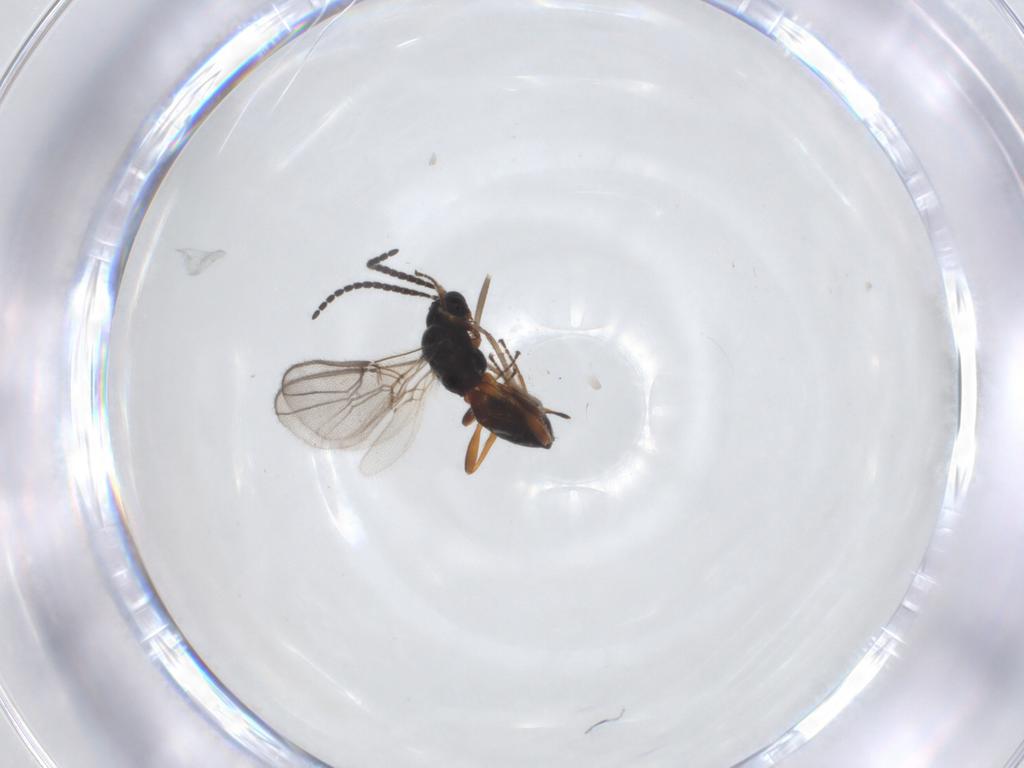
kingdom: Animalia
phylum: Arthropoda
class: Insecta
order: Hymenoptera
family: Braconidae
